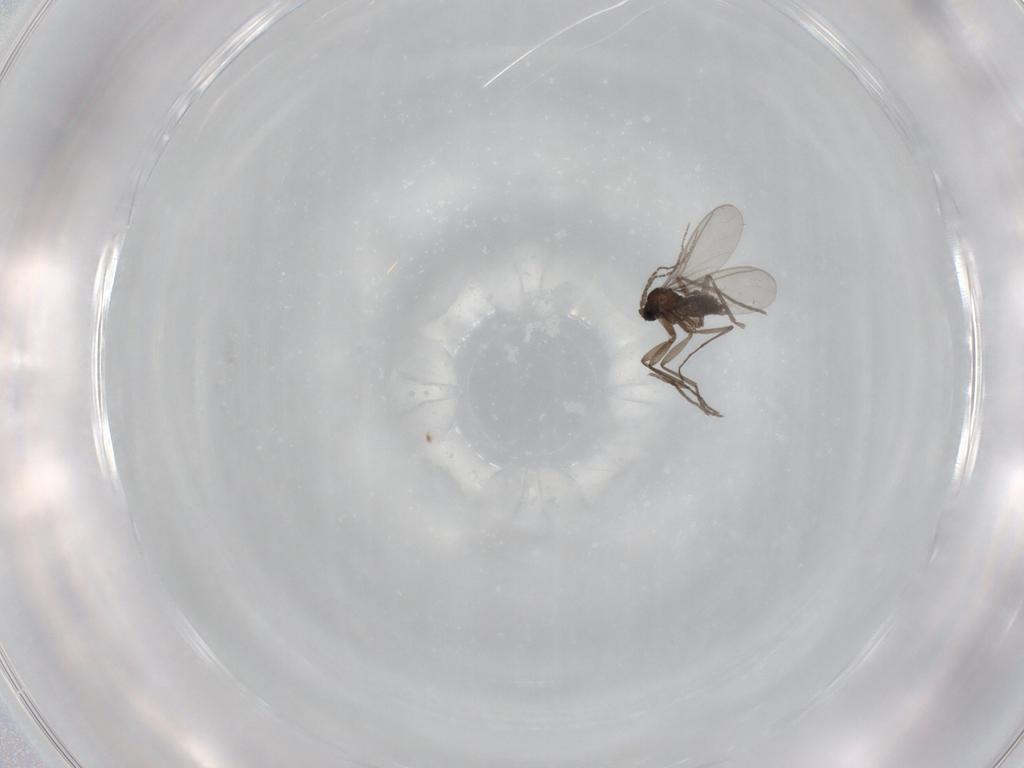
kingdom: Animalia
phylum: Arthropoda
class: Insecta
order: Diptera
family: Sciaridae
